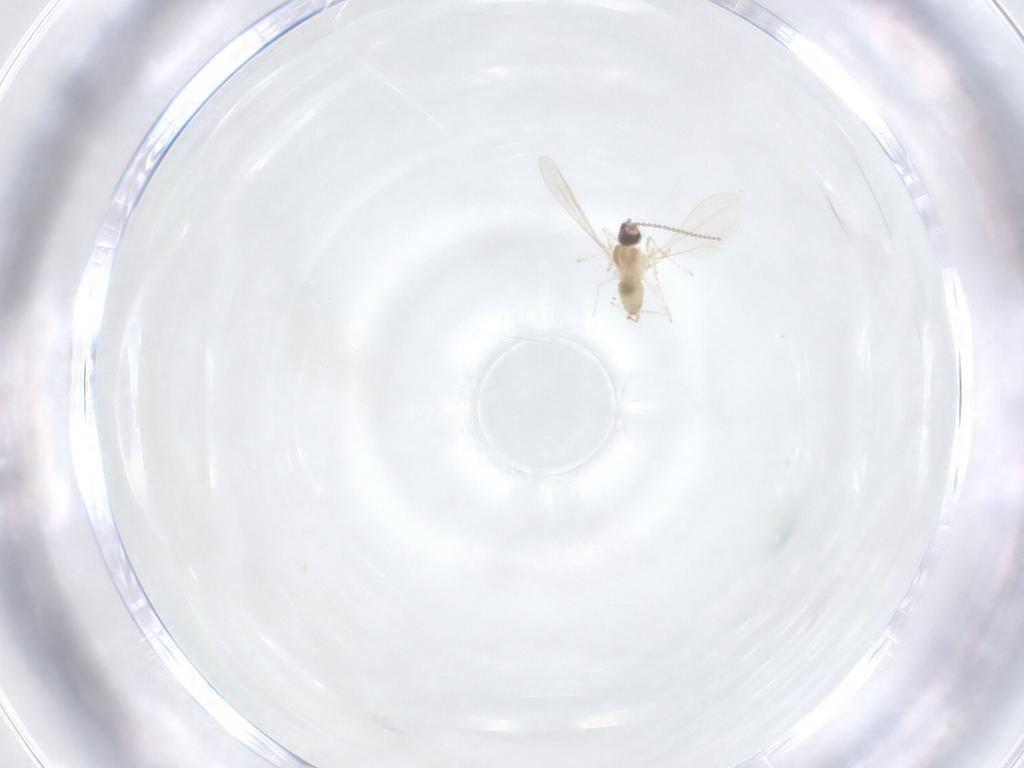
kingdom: Animalia
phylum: Arthropoda
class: Insecta
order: Diptera
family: Cecidomyiidae
